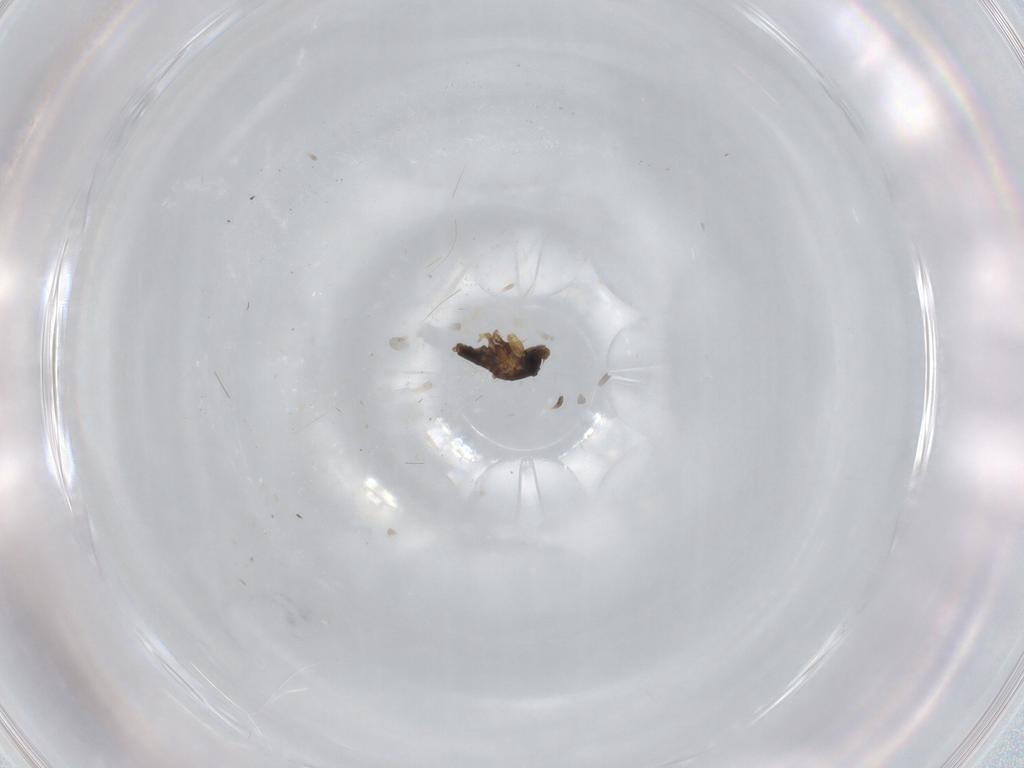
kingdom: Animalia
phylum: Arthropoda
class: Insecta
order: Diptera
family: Phoridae
